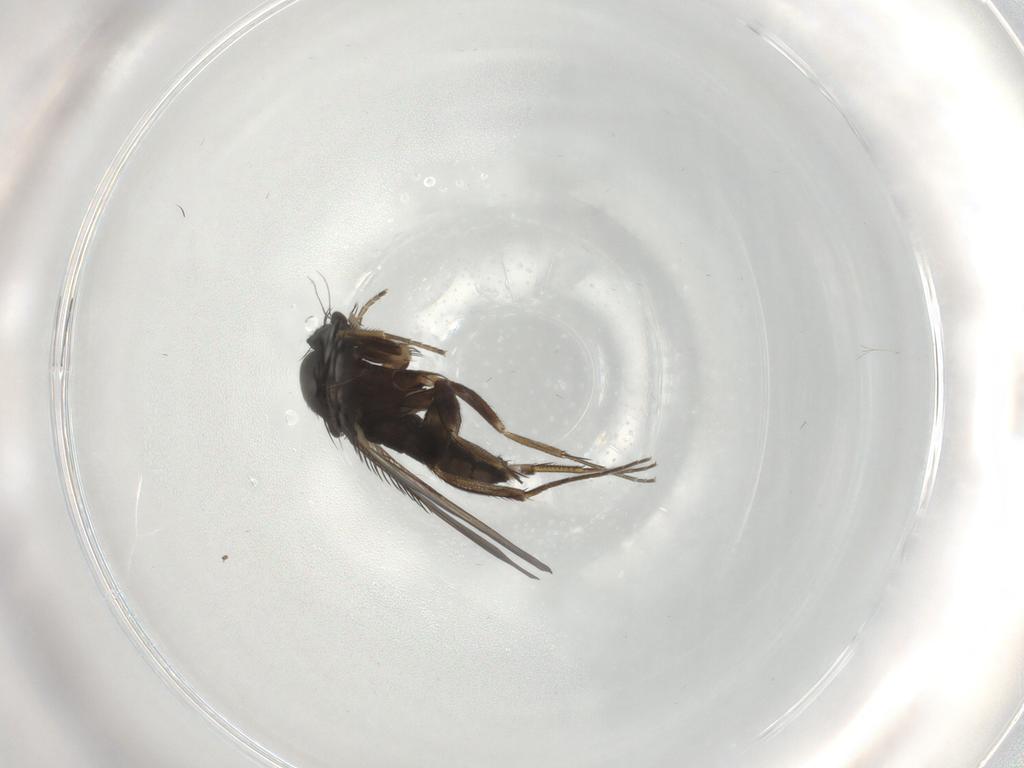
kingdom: Animalia
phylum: Arthropoda
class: Insecta
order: Diptera
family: Phoridae
